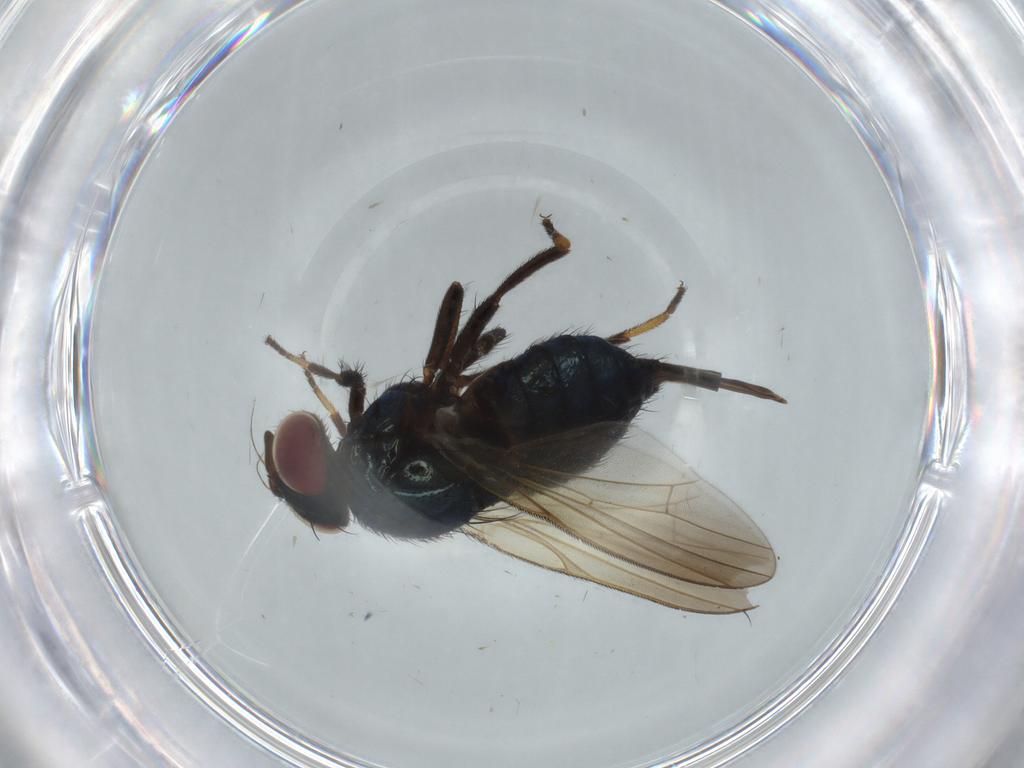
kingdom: Animalia
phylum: Arthropoda
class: Insecta
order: Diptera
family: Lonchaeidae
